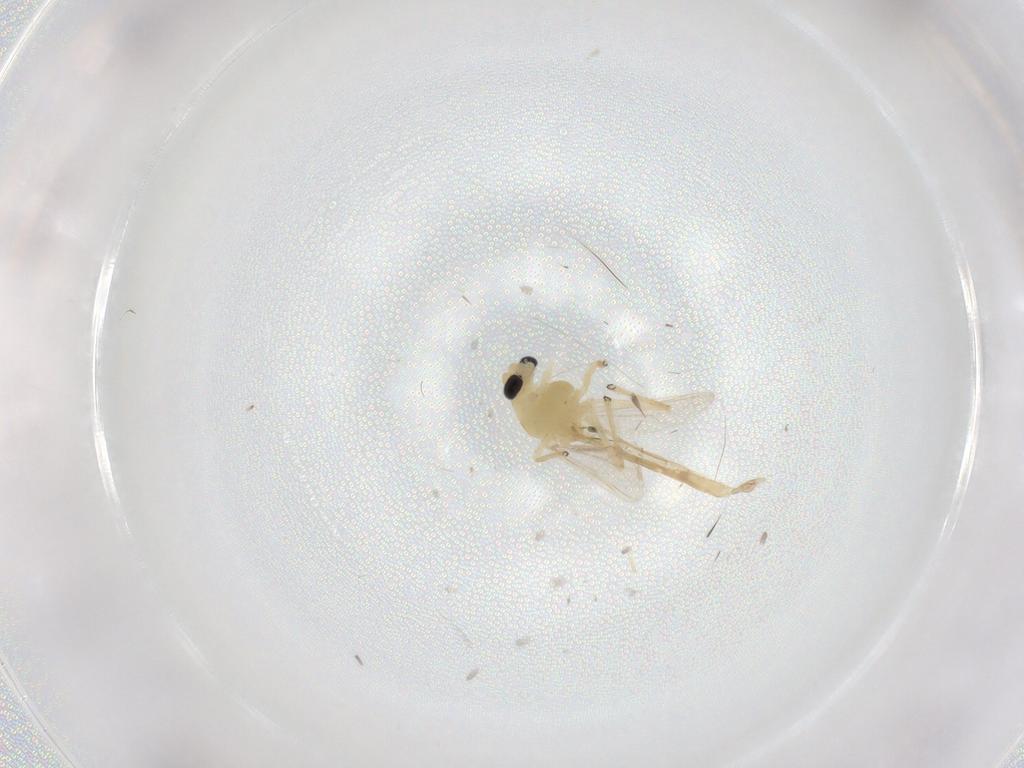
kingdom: Animalia
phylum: Arthropoda
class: Insecta
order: Diptera
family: Chironomidae
